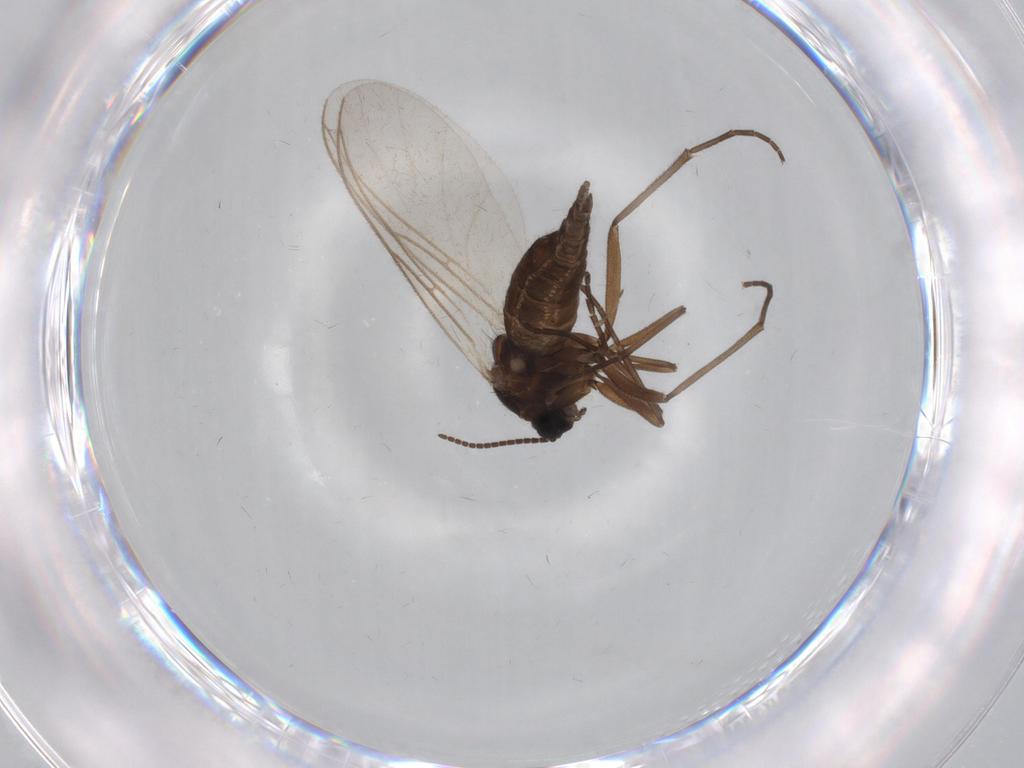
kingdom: Animalia
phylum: Arthropoda
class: Insecta
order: Diptera
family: Sciaridae
